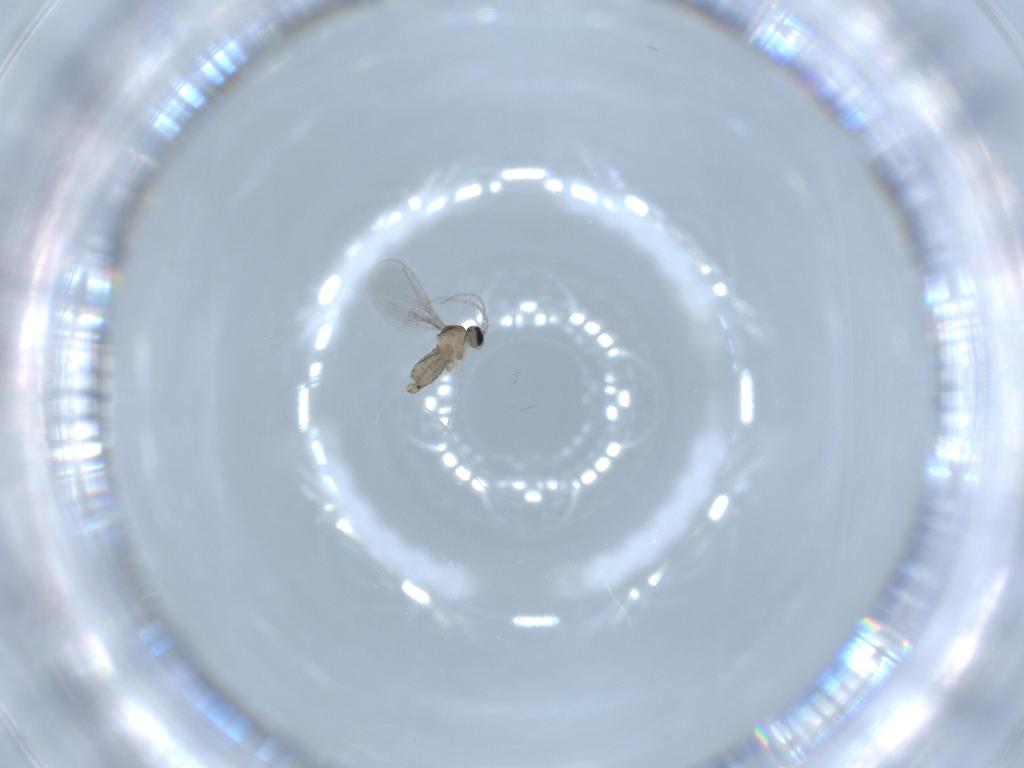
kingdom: Animalia
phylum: Arthropoda
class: Insecta
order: Diptera
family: Cecidomyiidae
